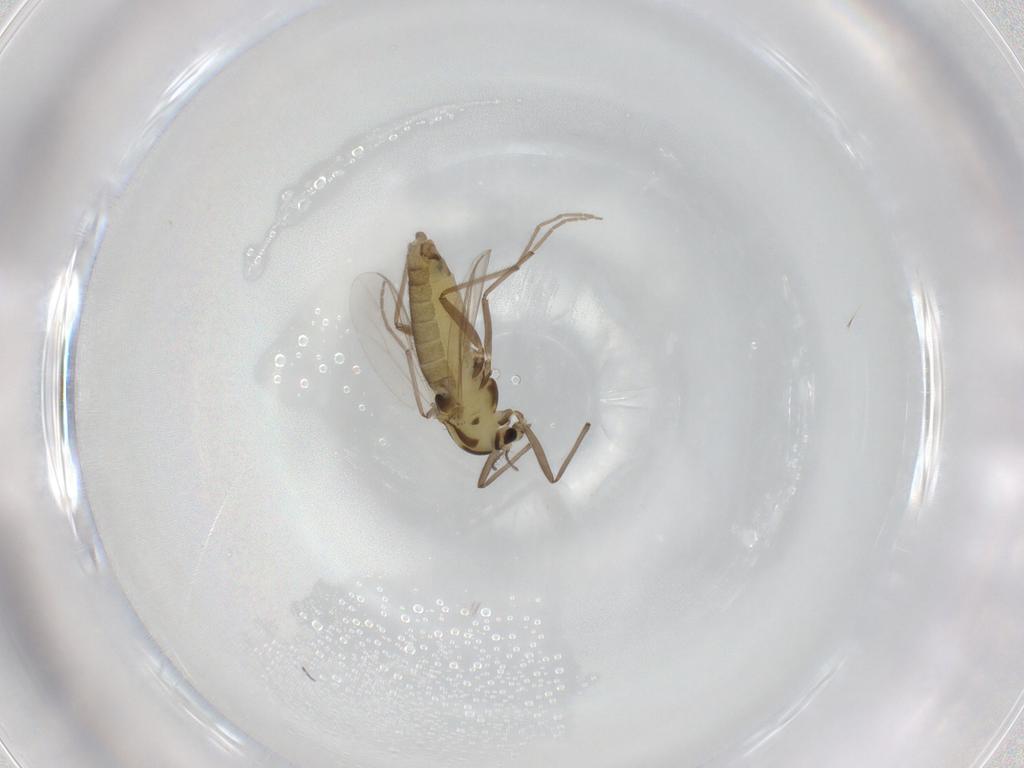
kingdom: Animalia
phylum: Arthropoda
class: Insecta
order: Diptera
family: Chironomidae
